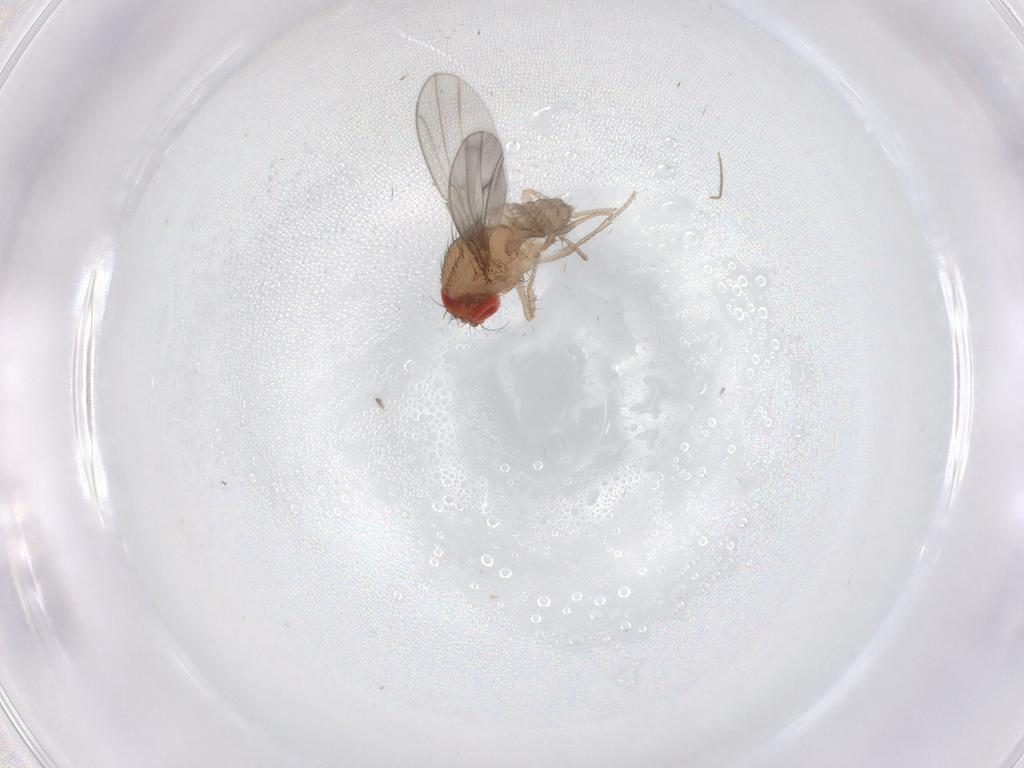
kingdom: Animalia
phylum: Arthropoda
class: Insecta
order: Diptera
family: Drosophilidae
